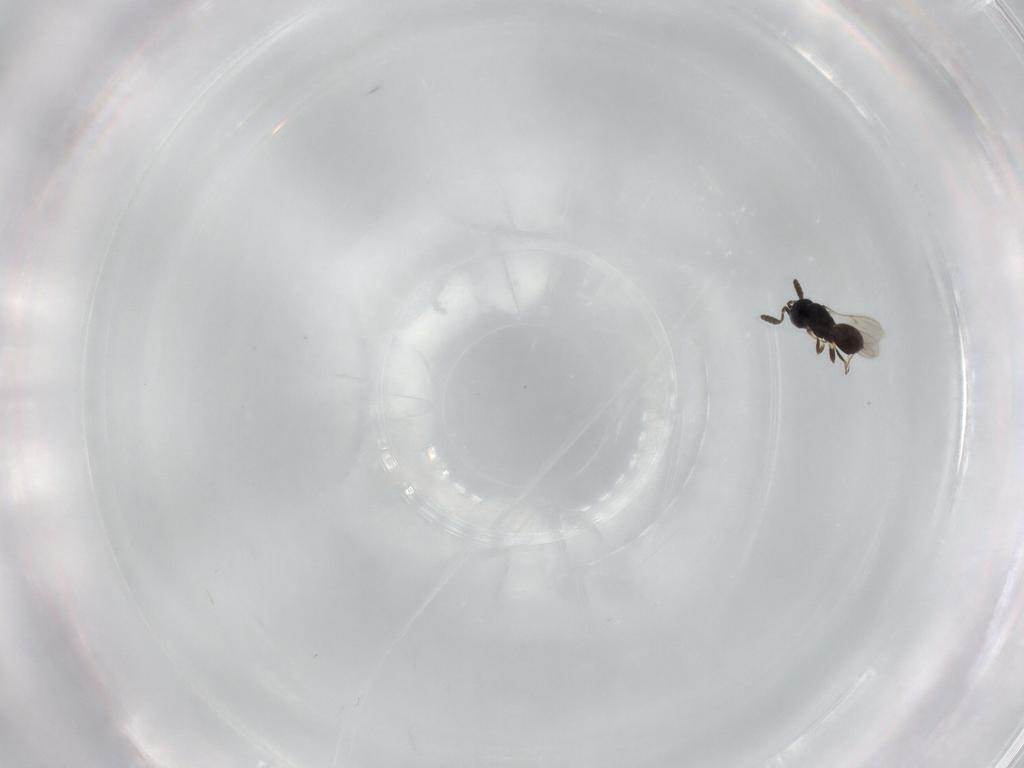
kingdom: Animalia
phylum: Arthropoda
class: Insecta
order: Hymenoptera
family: Scelionidae
